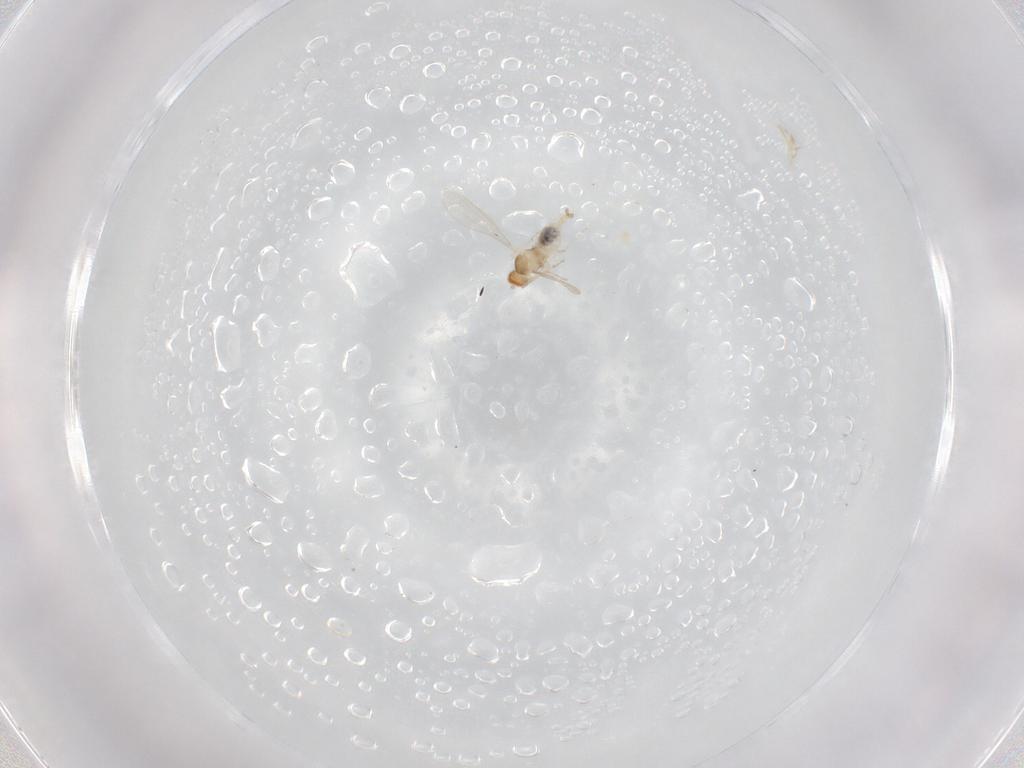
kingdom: Animalia
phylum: Arthropoda
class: Insecta
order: Diptera
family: Cecidomyiidae
